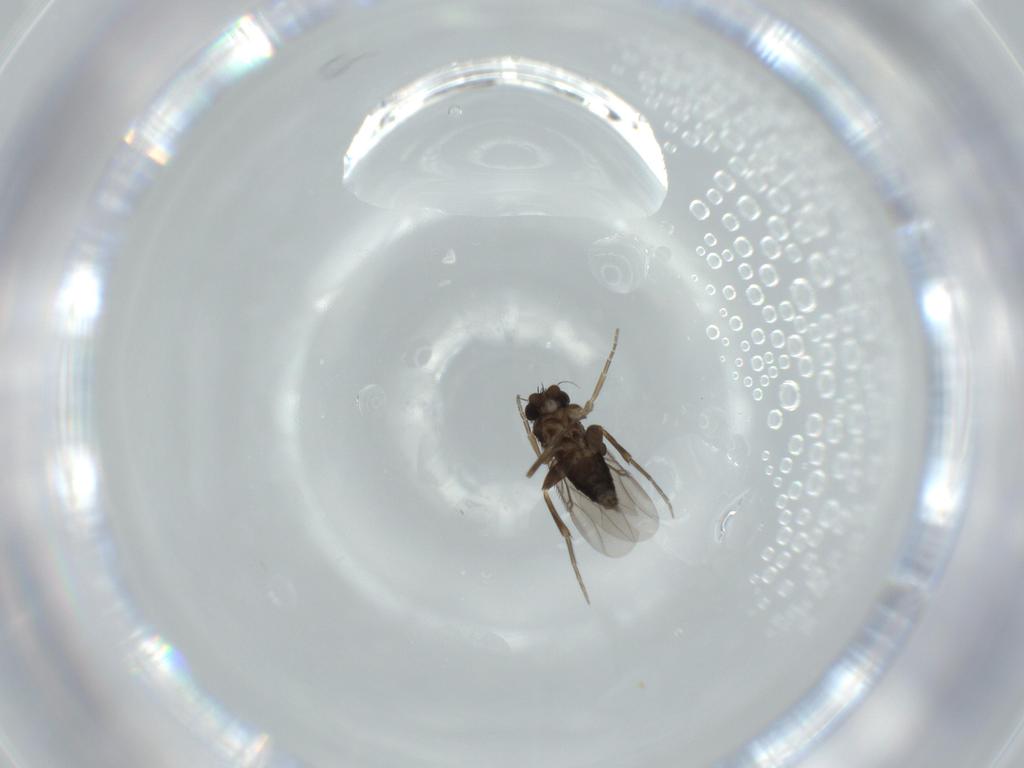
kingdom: Animalia
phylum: Arthropoda
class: Insecta
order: Diptera
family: Phoridae
